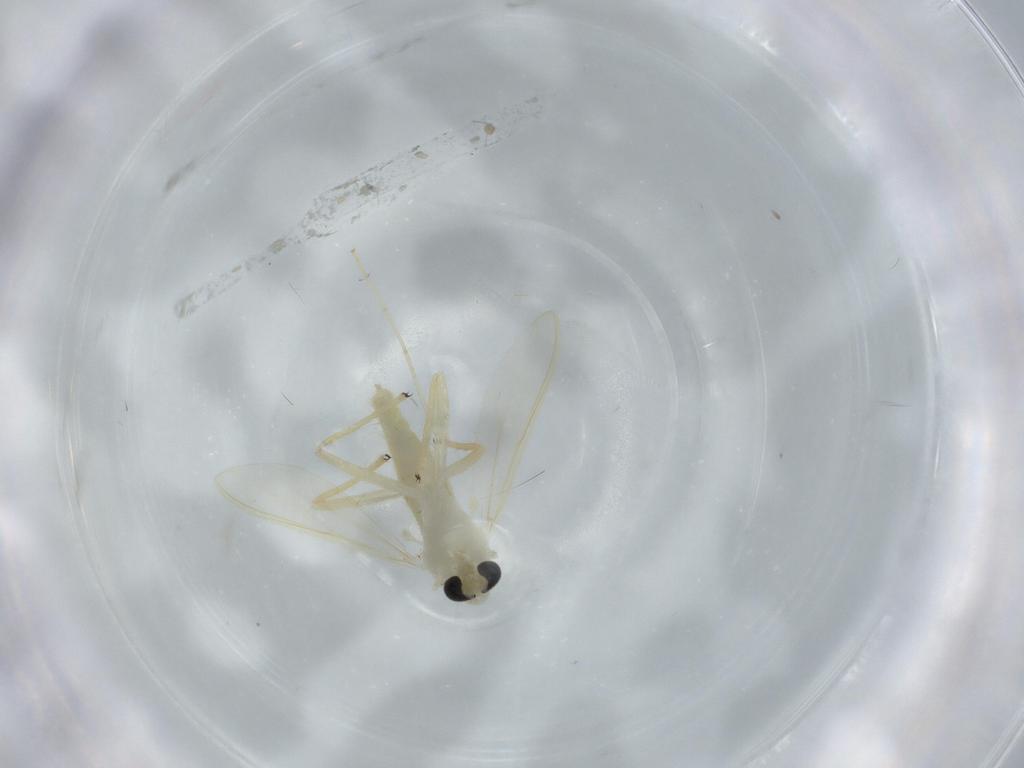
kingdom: Animalia
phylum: Arthropoda
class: Insecta
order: Diptera
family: Chironomidae
